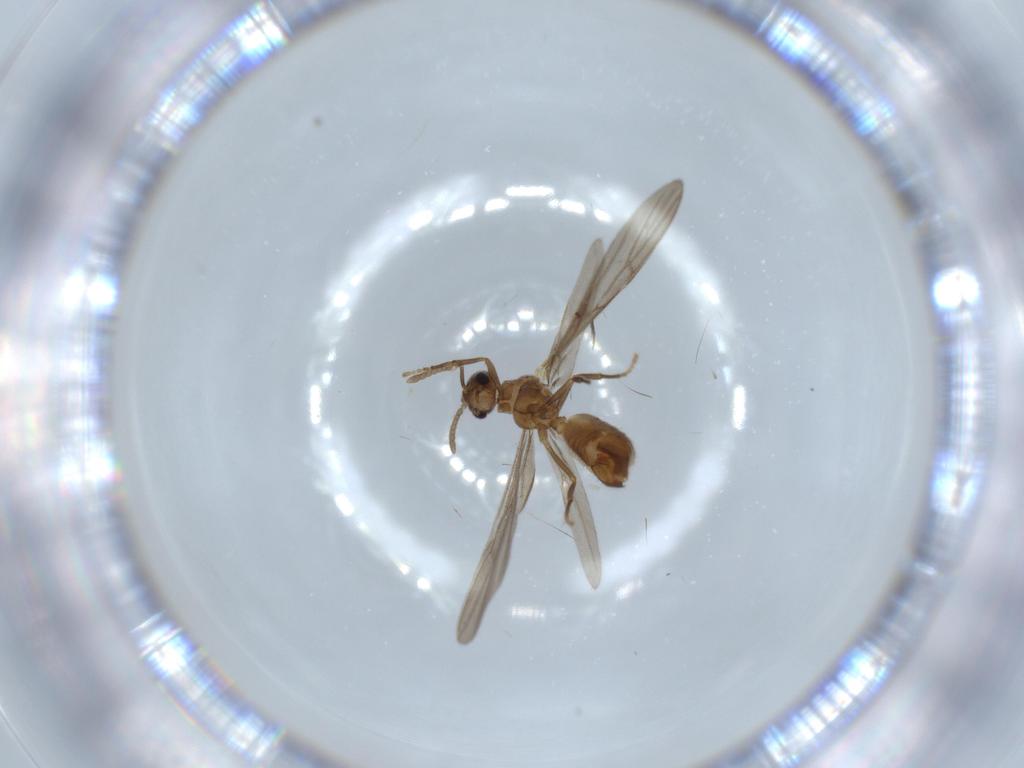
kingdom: Animalia
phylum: Arthropoda
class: Insecta
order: Hymenoptera
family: Formicidae
